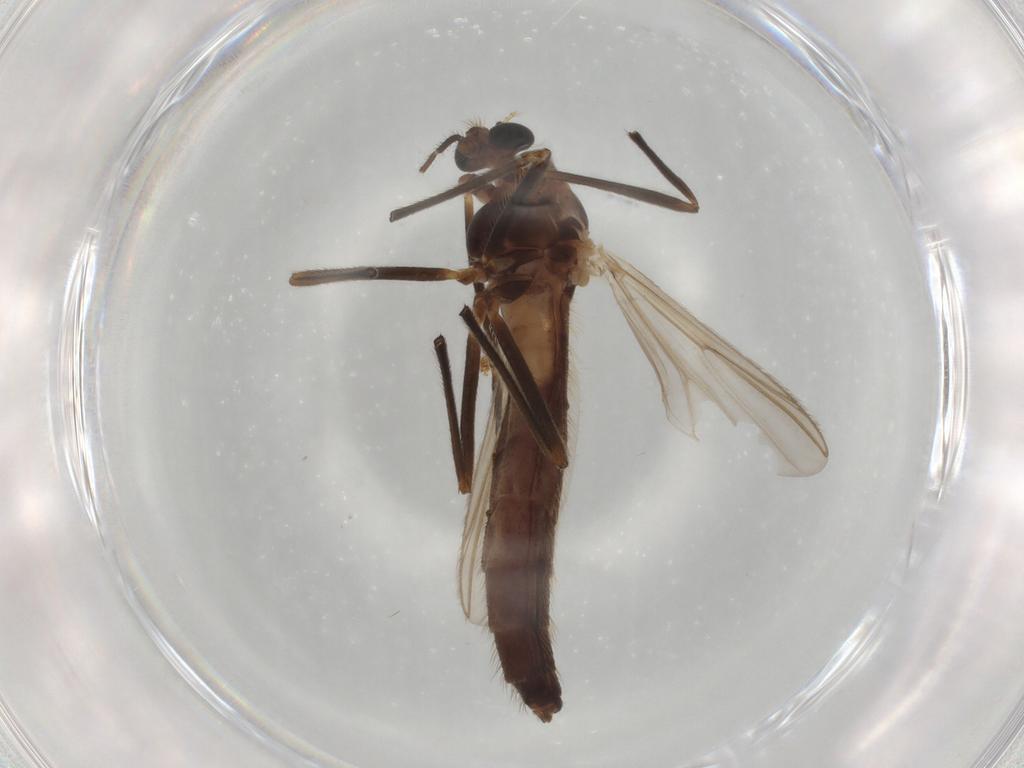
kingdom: Animalia
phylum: Arthropoda
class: Insecta
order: Diptera
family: Chironomidae
